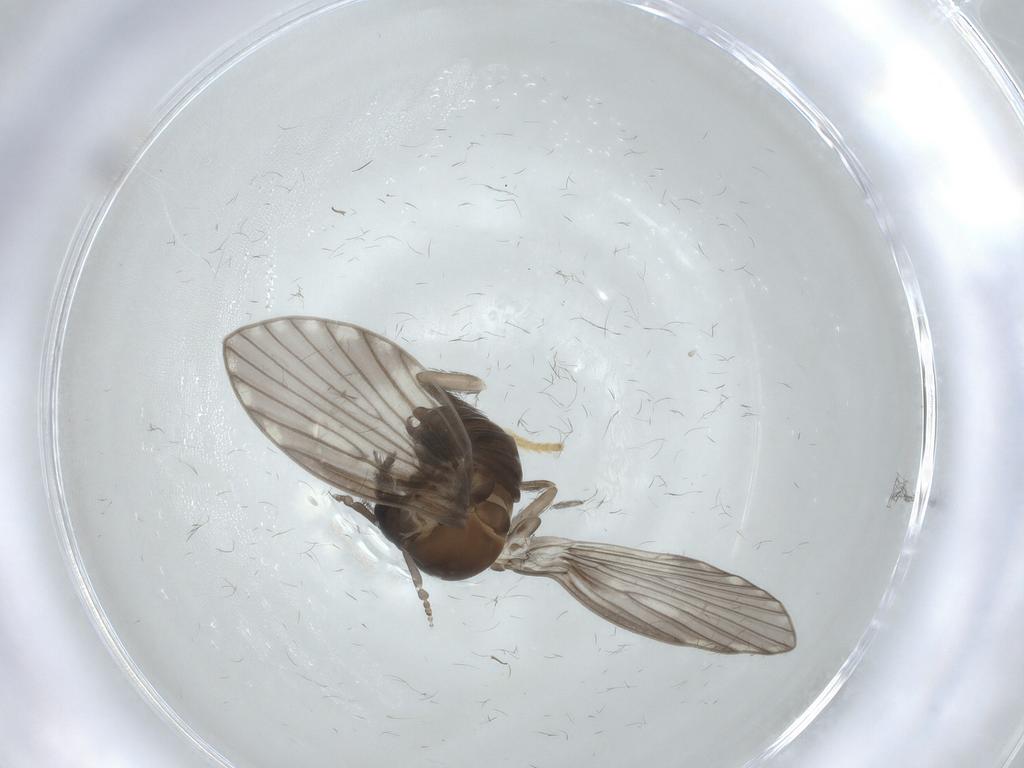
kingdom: Animalia
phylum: Arthropoda
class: Insecta
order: Diptera
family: Psychodidae
